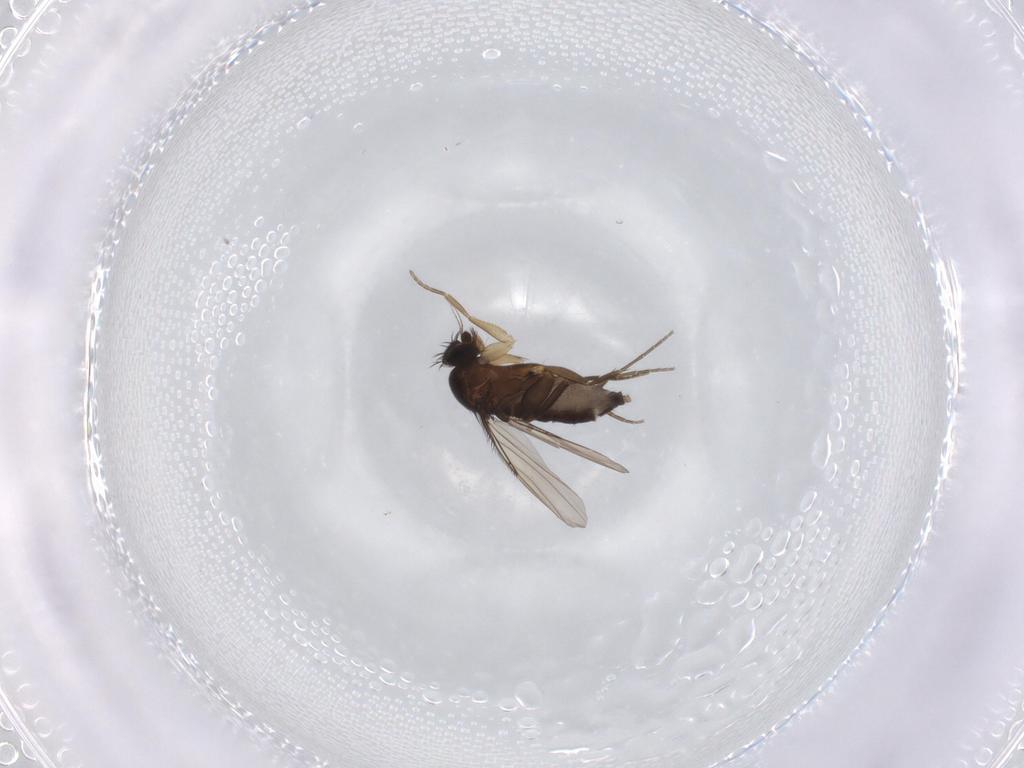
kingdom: Animalia
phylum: Arthropoda
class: Insecta
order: Diptera
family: Phoridae
